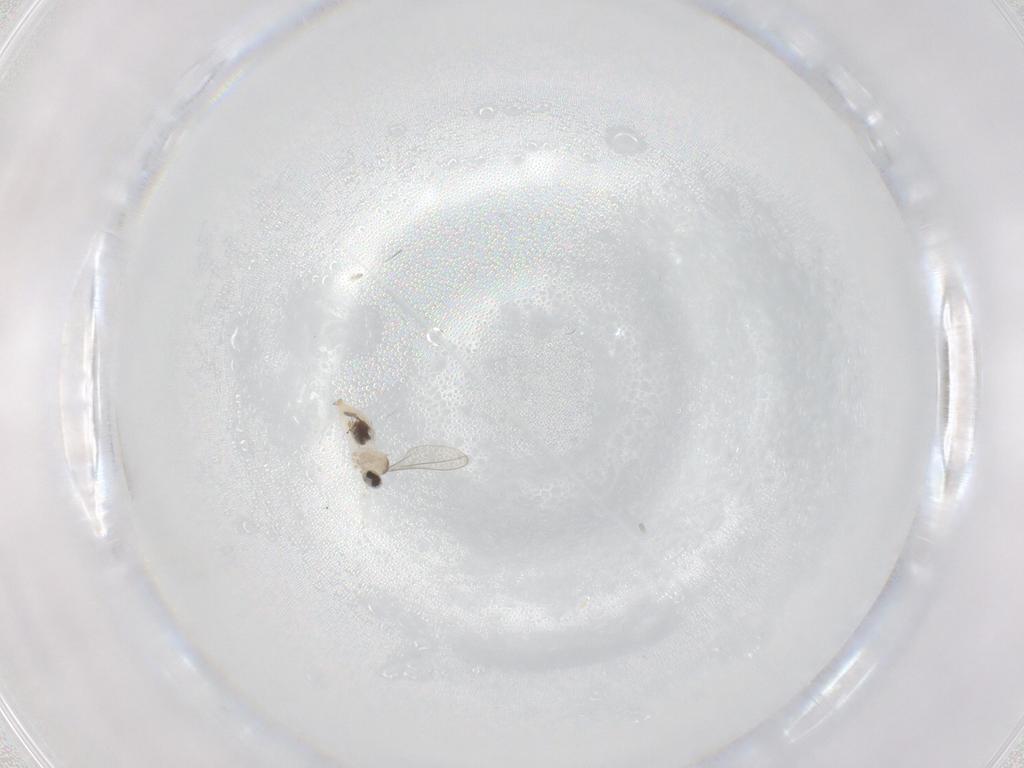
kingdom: Animalia
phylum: Arthropoda
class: Insecta
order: Diptera
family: Cecidomyiidae
